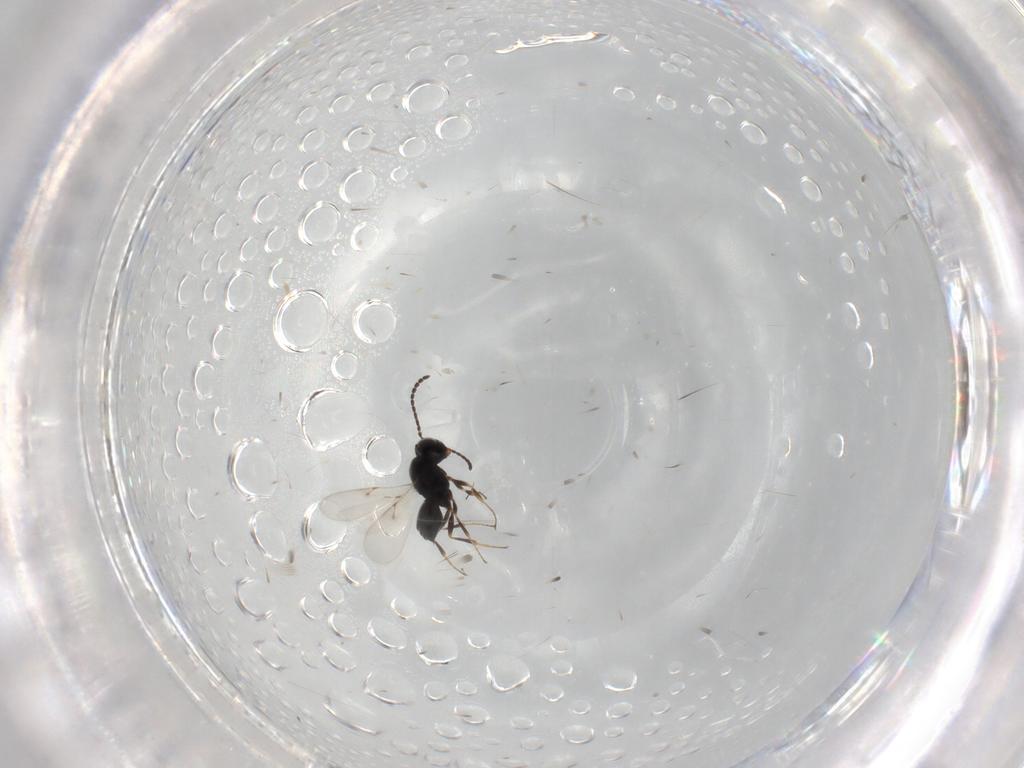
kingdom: Animalia
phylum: Arthropoda
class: Insecta
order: Hymenoptera
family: Scelionidae
